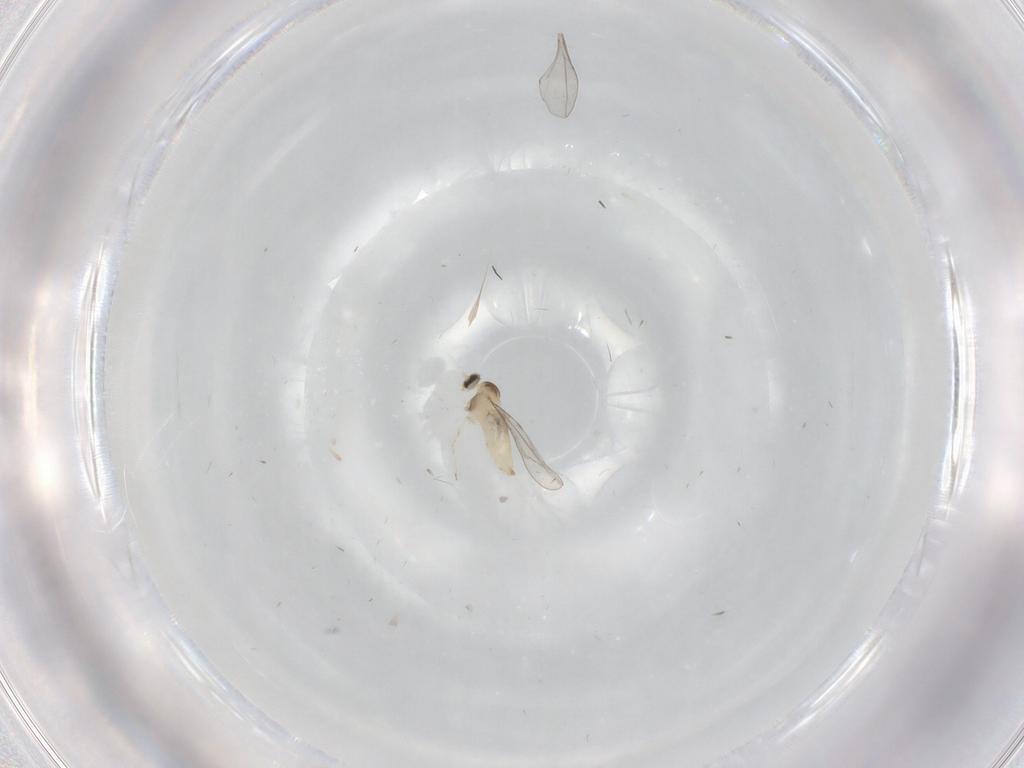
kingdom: Animalia
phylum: Arthropoda
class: Insecta
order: Diptera
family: Cecidomyiidae
